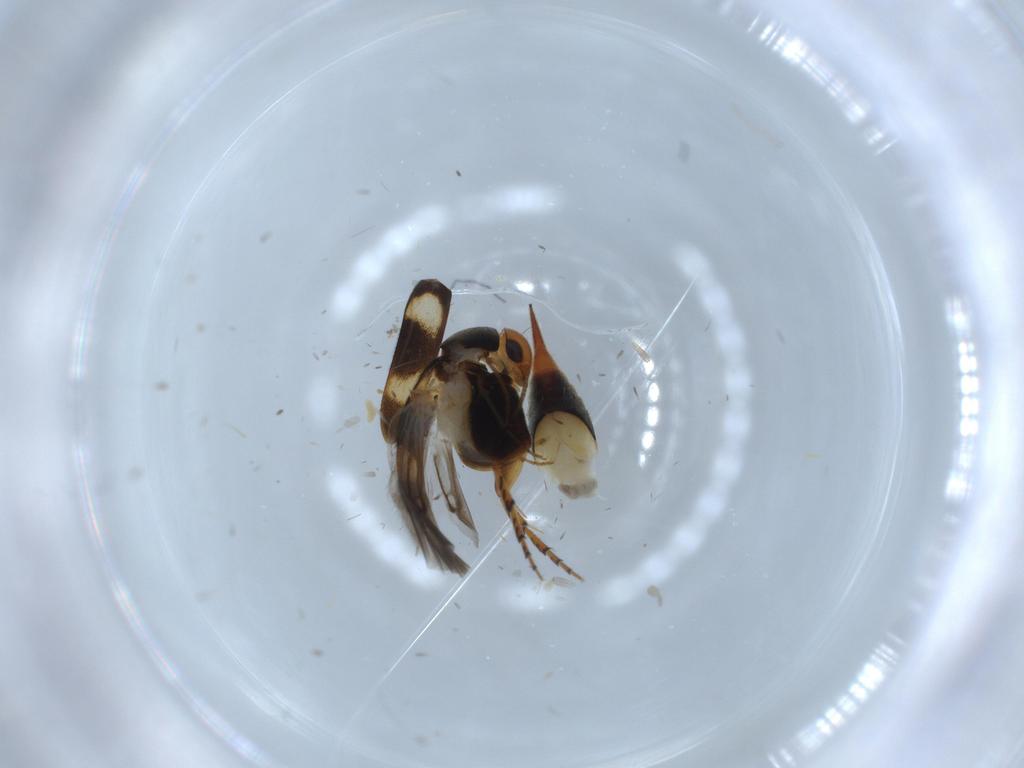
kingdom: Animalia
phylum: Arthropoda
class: Insecta
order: Coleoptera
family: Mordellidae
